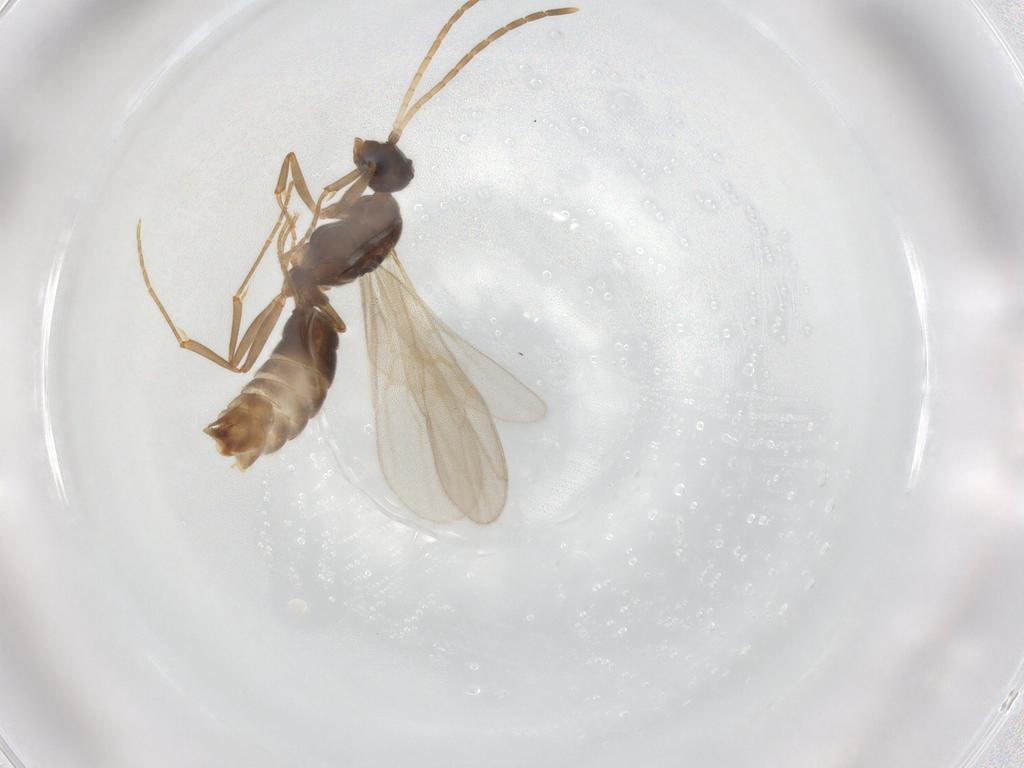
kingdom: Animalia
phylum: Arthropoda
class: Insecta
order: Hymenoptera
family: Formicidae
